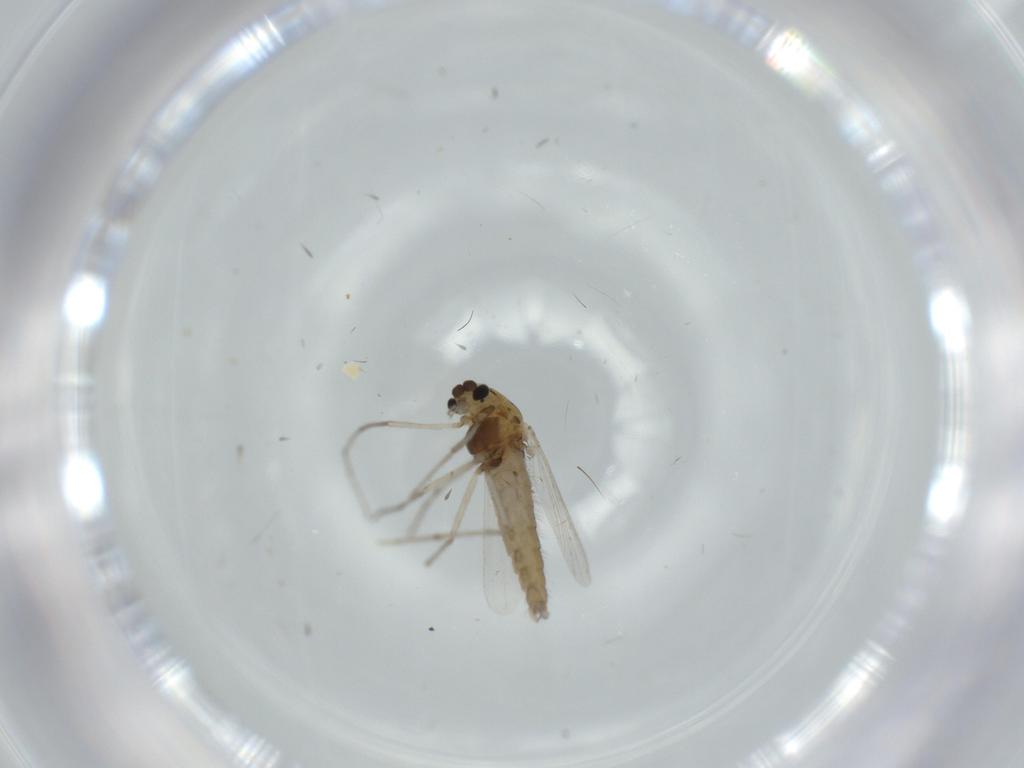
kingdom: Animalia
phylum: Arthropoda
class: Insecta
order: Diptera
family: Chironomidae
